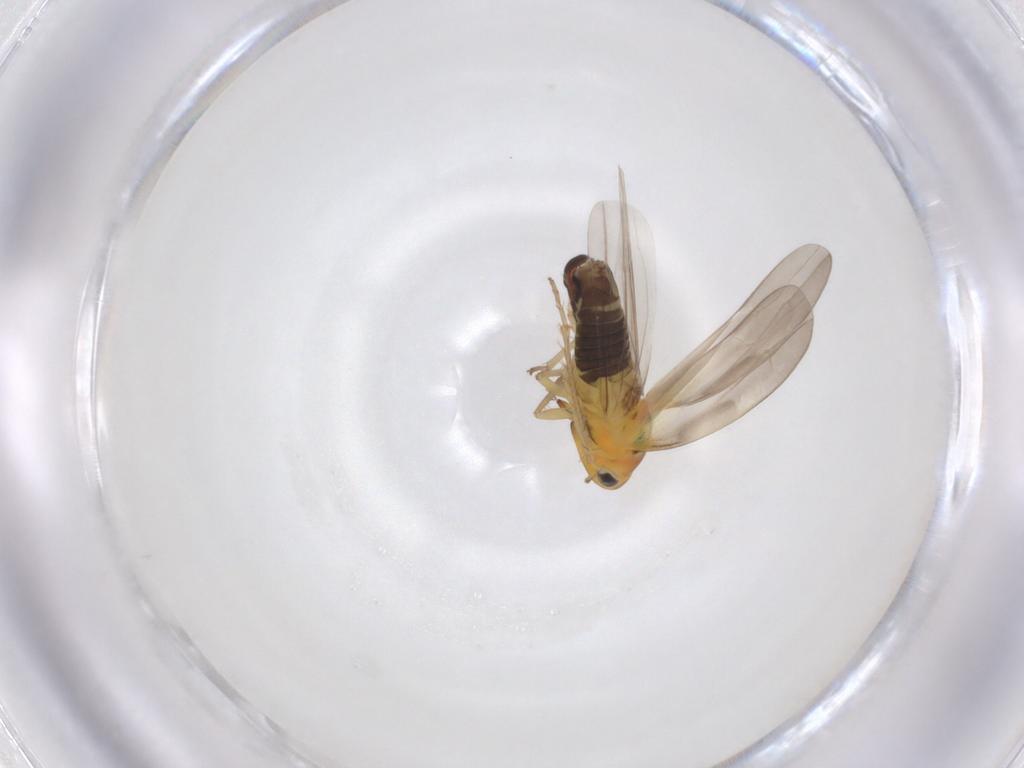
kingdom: Animalia
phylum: Arthropoda
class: Insecta
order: Hemiptera
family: Cicadellidae
